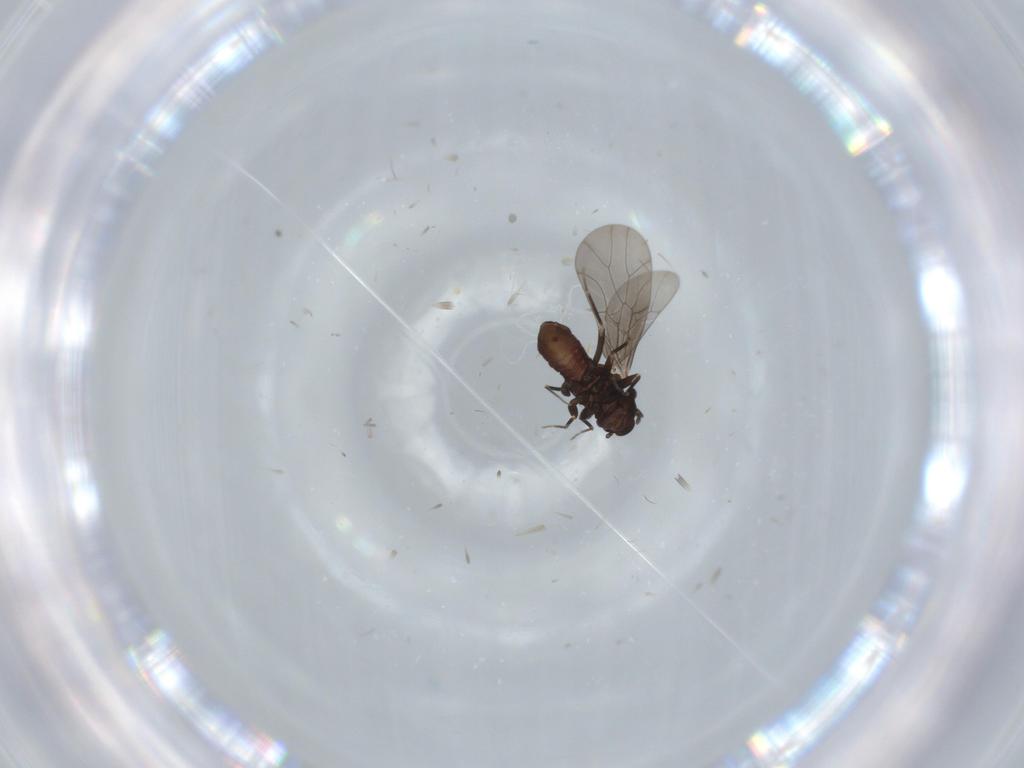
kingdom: Animalia
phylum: Arthropoda
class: Insecta
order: Psocodea
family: Lepidopsocidae
